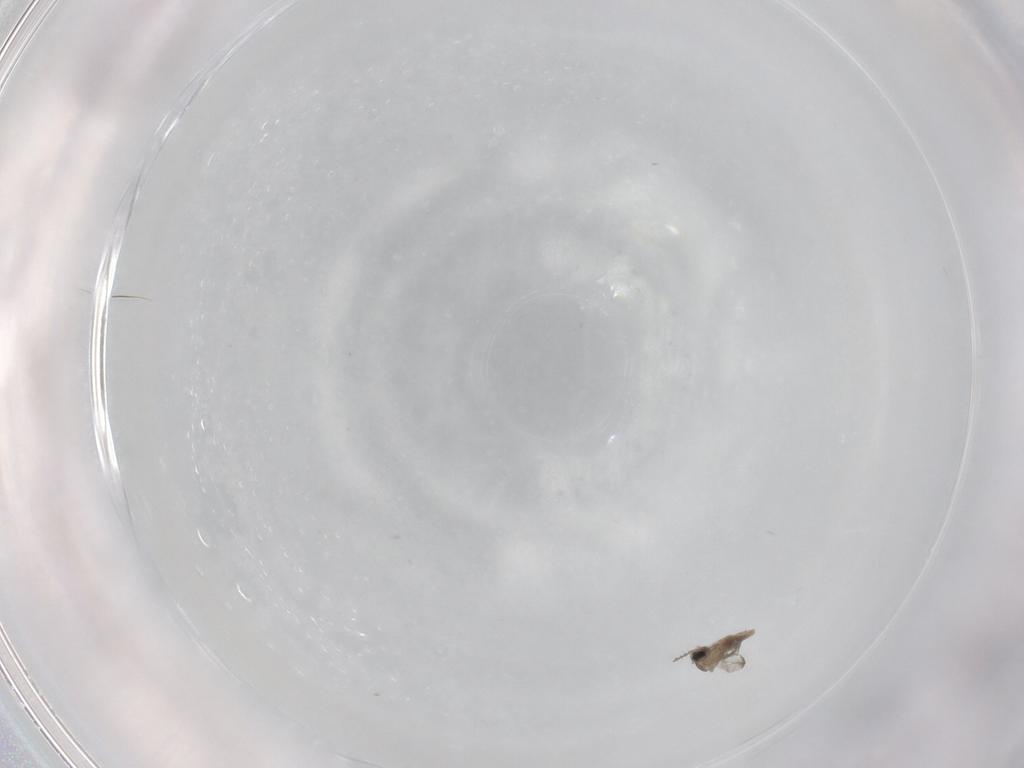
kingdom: Animalia
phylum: Arthropoda
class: Insecta
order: Diptera
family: Cecidomyiidae
